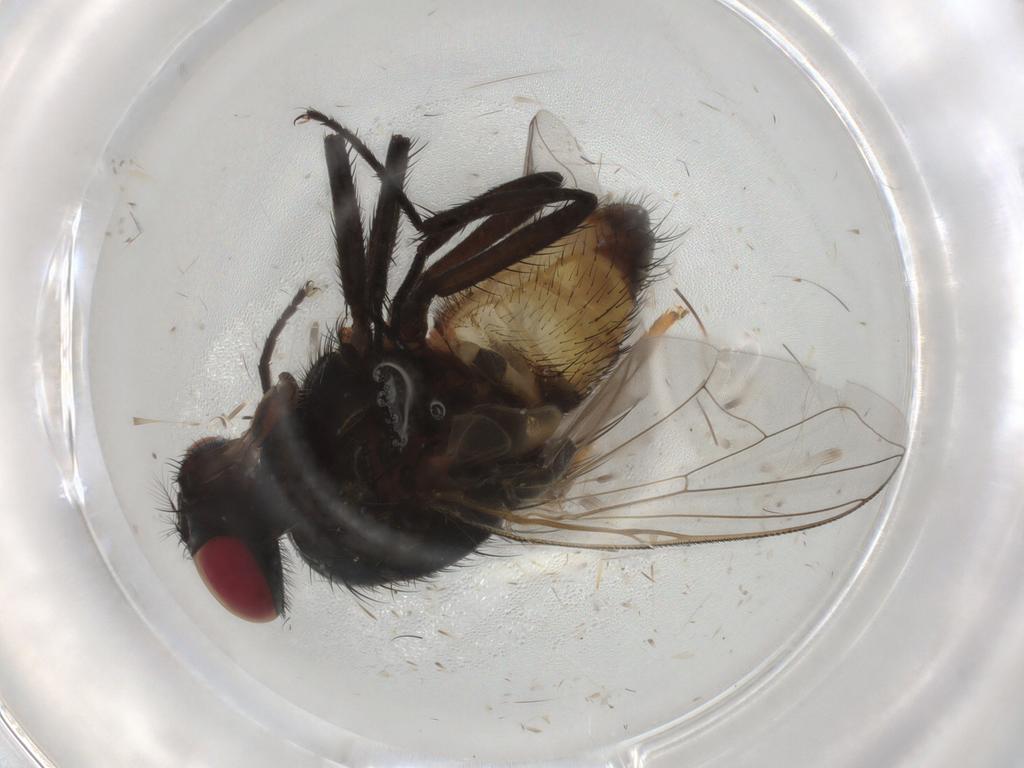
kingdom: Animalia
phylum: Arthropoda
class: Insecta
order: Diptera
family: Muscidae
